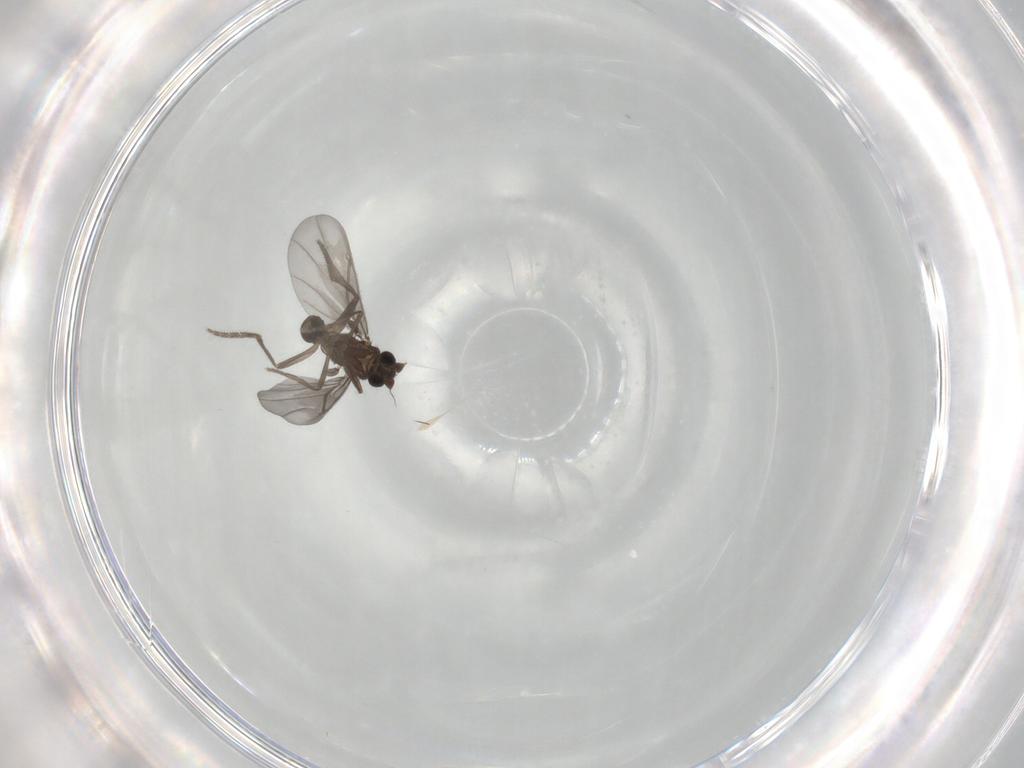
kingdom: Animalia
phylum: Arthropoda
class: Insecta
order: Diptera
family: Phoridae
